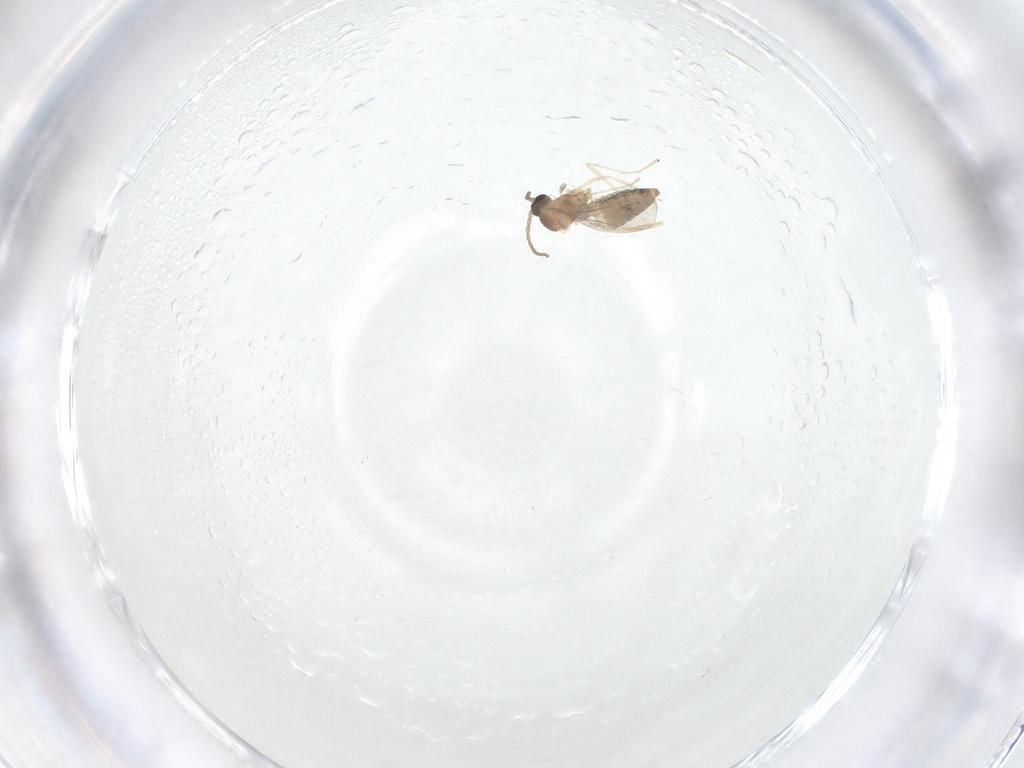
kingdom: Animalia
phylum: Arthropoda
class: Insecta
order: Diptera
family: Cecidomyiidae
